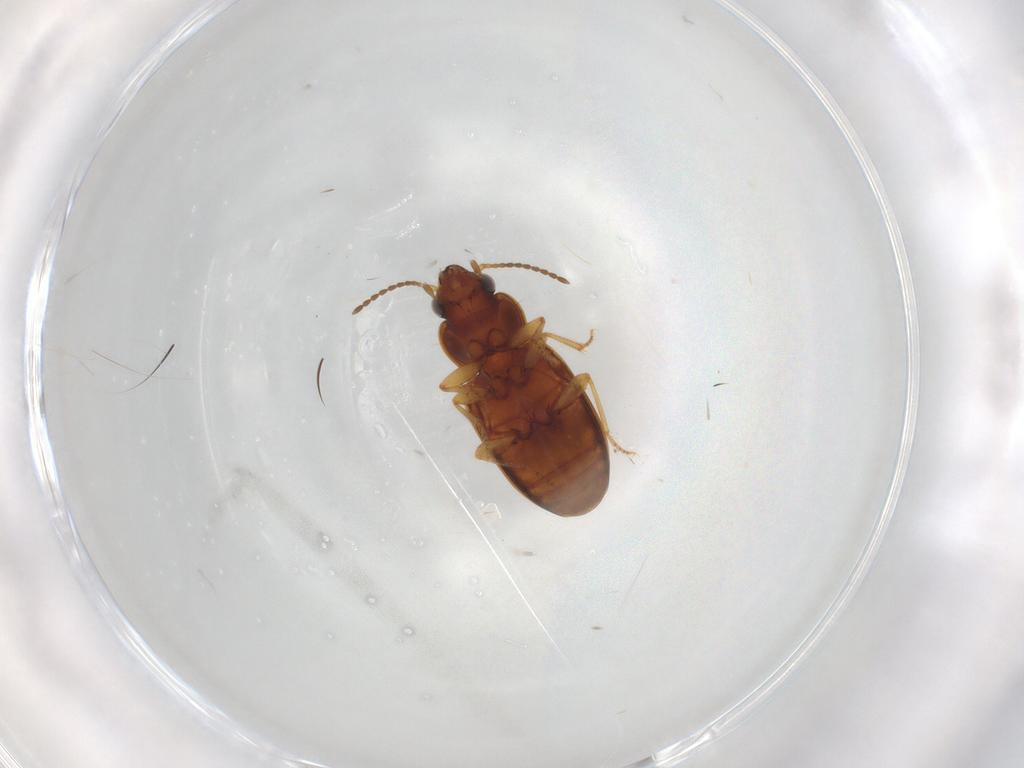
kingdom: Animalia
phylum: Arthropoda
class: Insecta
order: Coleoptera
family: Carabidae
